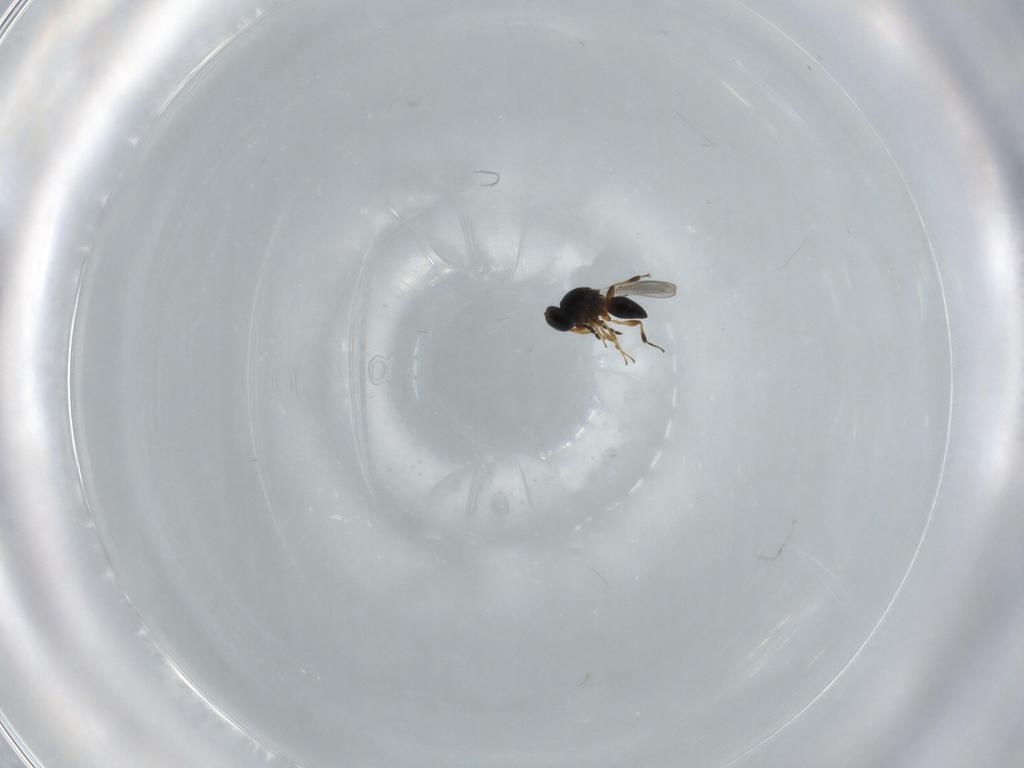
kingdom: Animalia
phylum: Arthropoda
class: Insecta
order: Hymenoptera
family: Platygastridae
